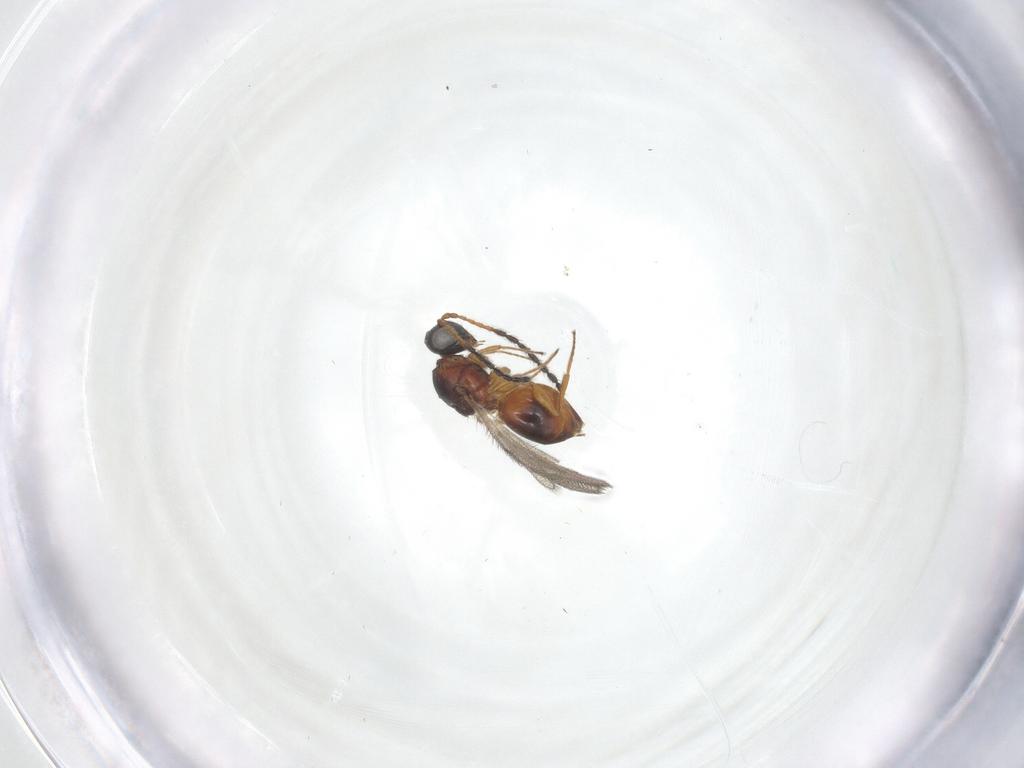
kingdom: Animalia
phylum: Arthropoda
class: Insecta
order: Hymenoptera
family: Figitidae
